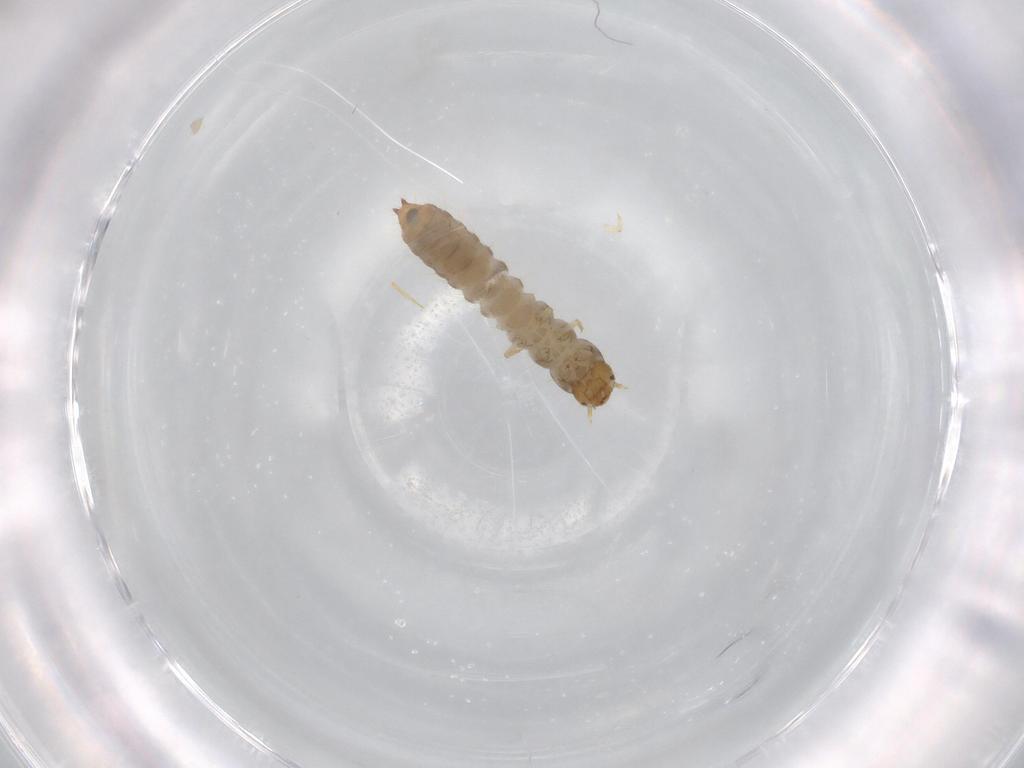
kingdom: Animalia
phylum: Arthropoda
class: Insecta
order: Coleoptera
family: Mycetophagidae
